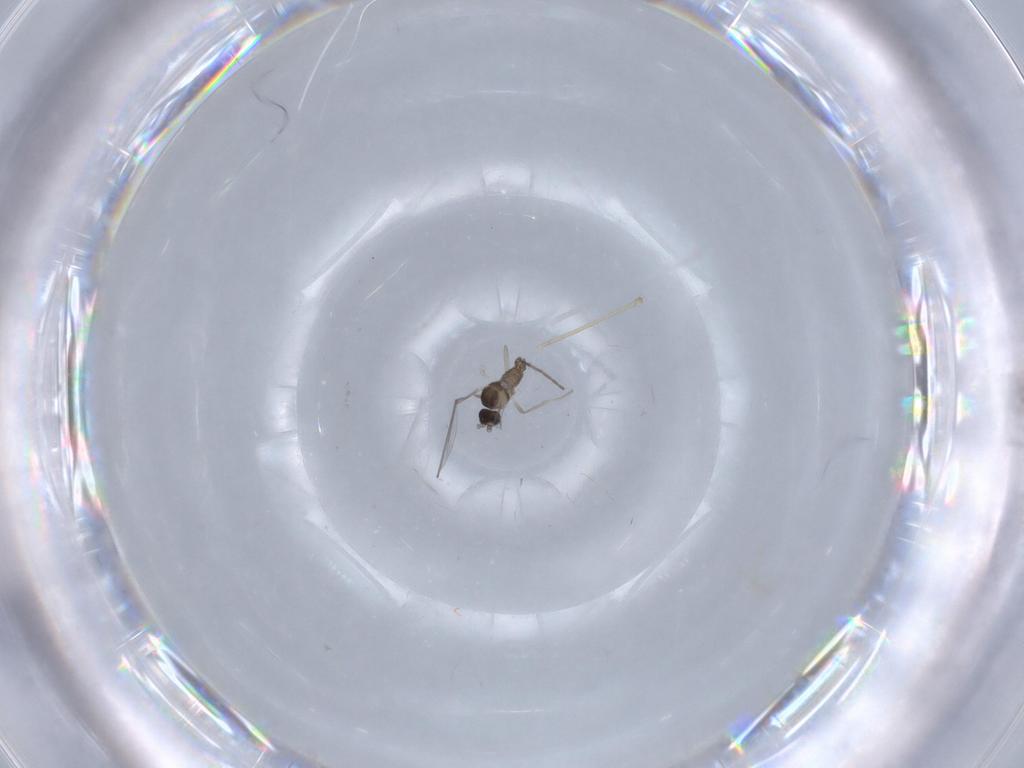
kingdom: Animalia
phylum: Arthropoda
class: Insecta
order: Diptera
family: Cecidomyiidae
